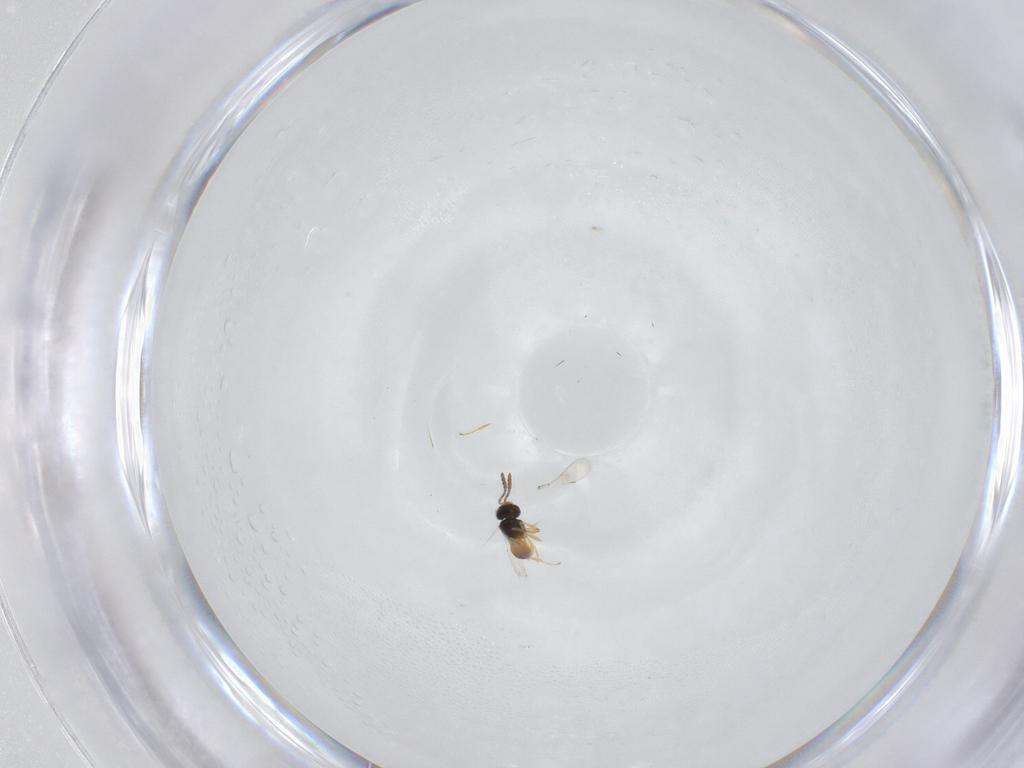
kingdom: Animalia
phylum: Arthropoda
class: Insecta
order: Hymenoptera
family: Scelionidae
